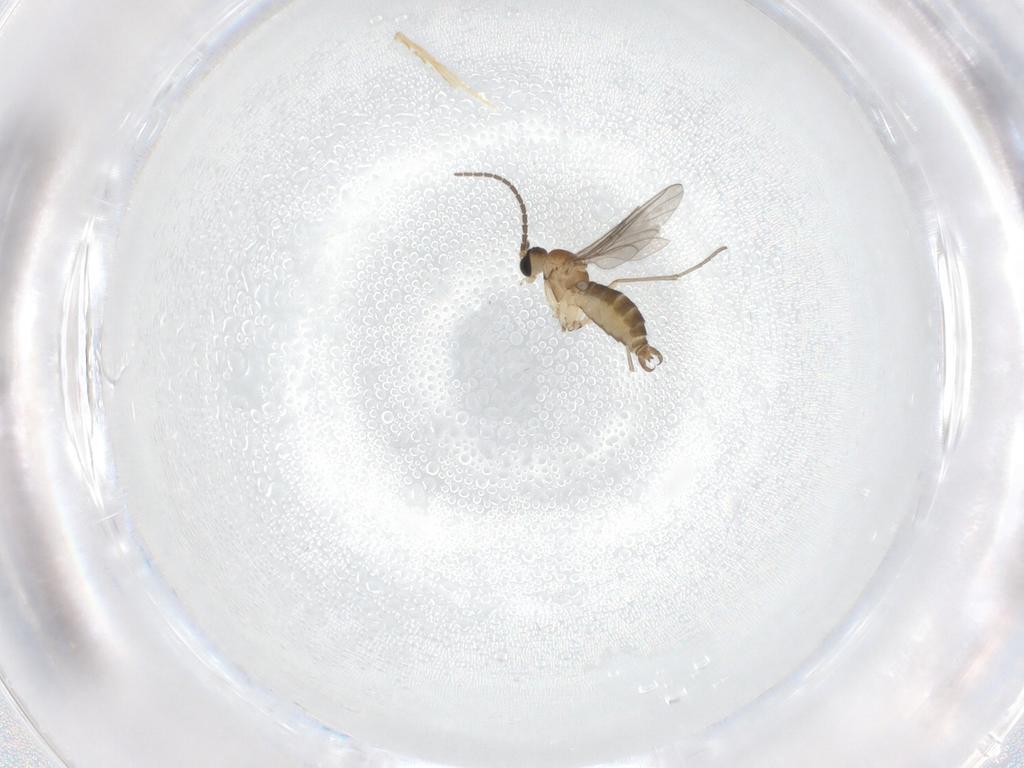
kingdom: Animalia
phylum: Arthropoda
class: Insecta
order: Diptera
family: Chironomidae
